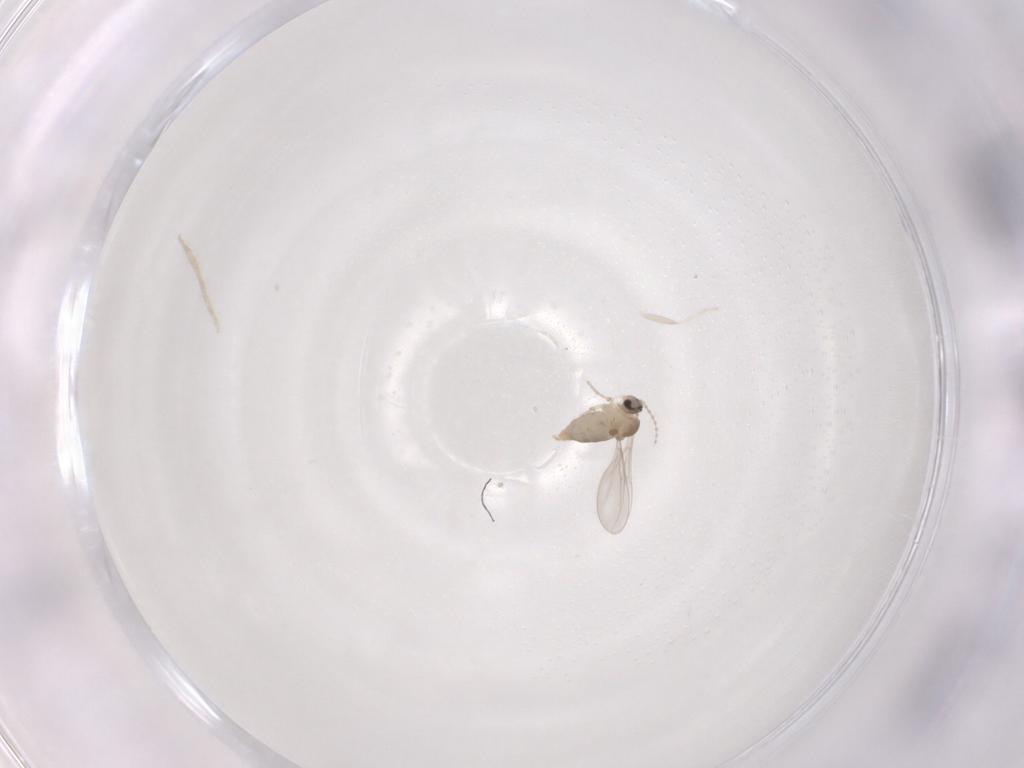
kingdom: Animalia
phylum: Arthropoda
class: Insecta
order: Diptera
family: Cecidomyiidae
